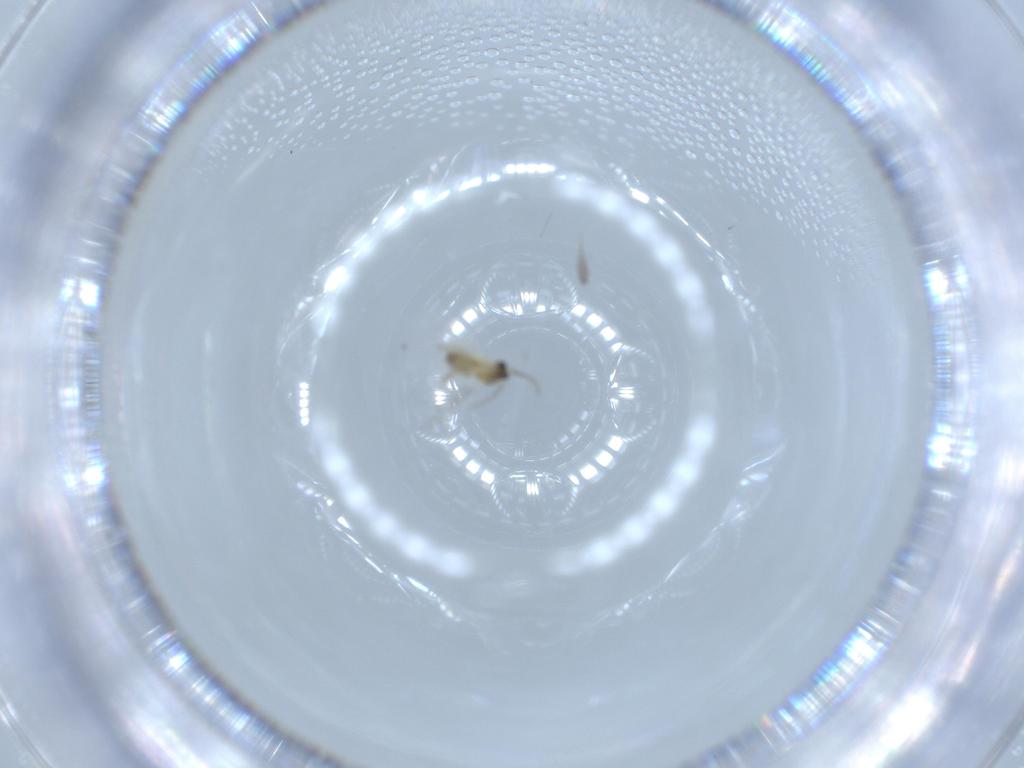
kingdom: Animalia
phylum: Arthropoda
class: Insecta
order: Diptera
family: Cecidomyiidae
